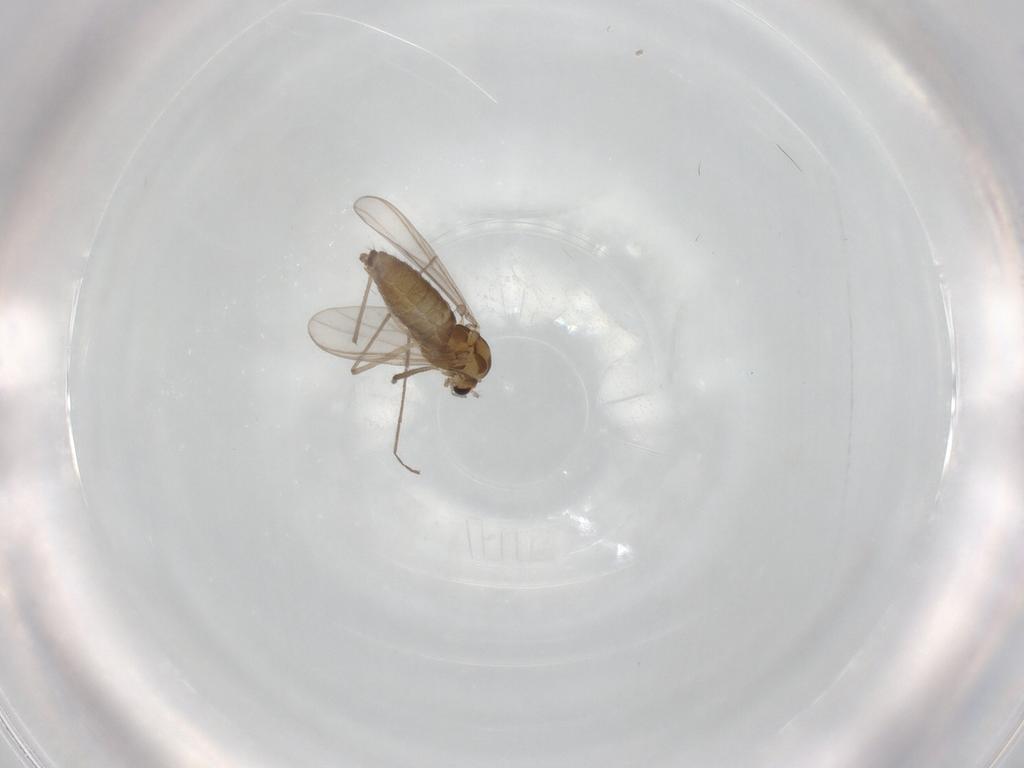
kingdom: Animalia
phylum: Arthropoda
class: Insecta
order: Diptera
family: Chironomidae
